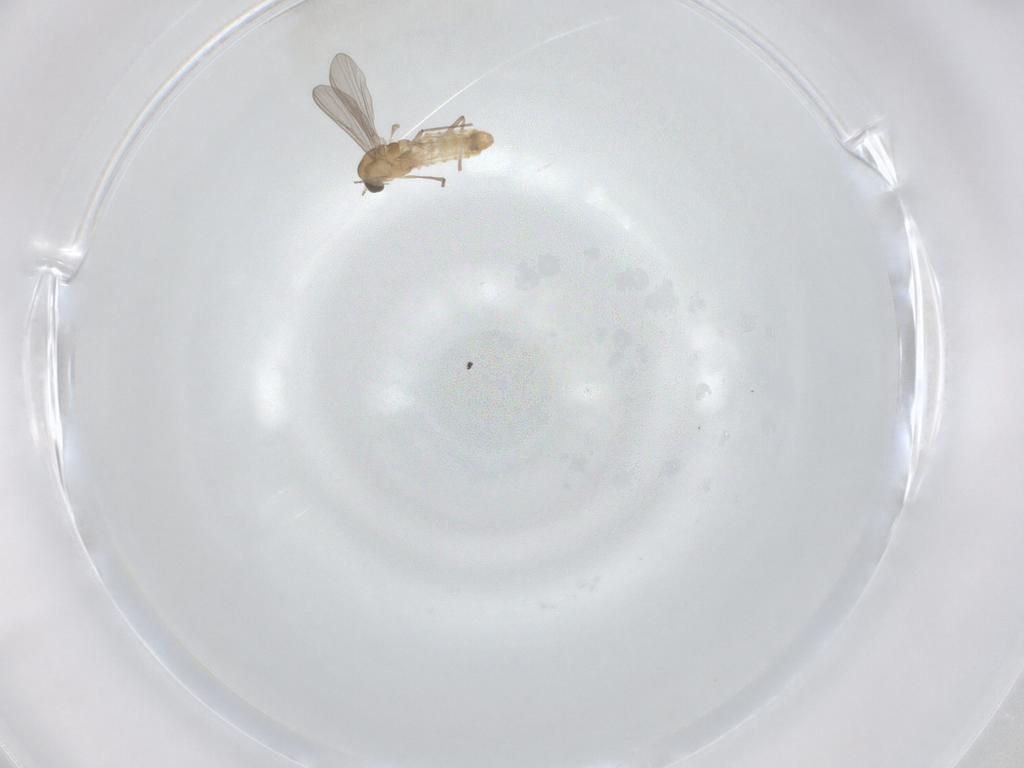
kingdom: Animalia
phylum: Arthropoda
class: Insecta
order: Diptera
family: Chironomidae
